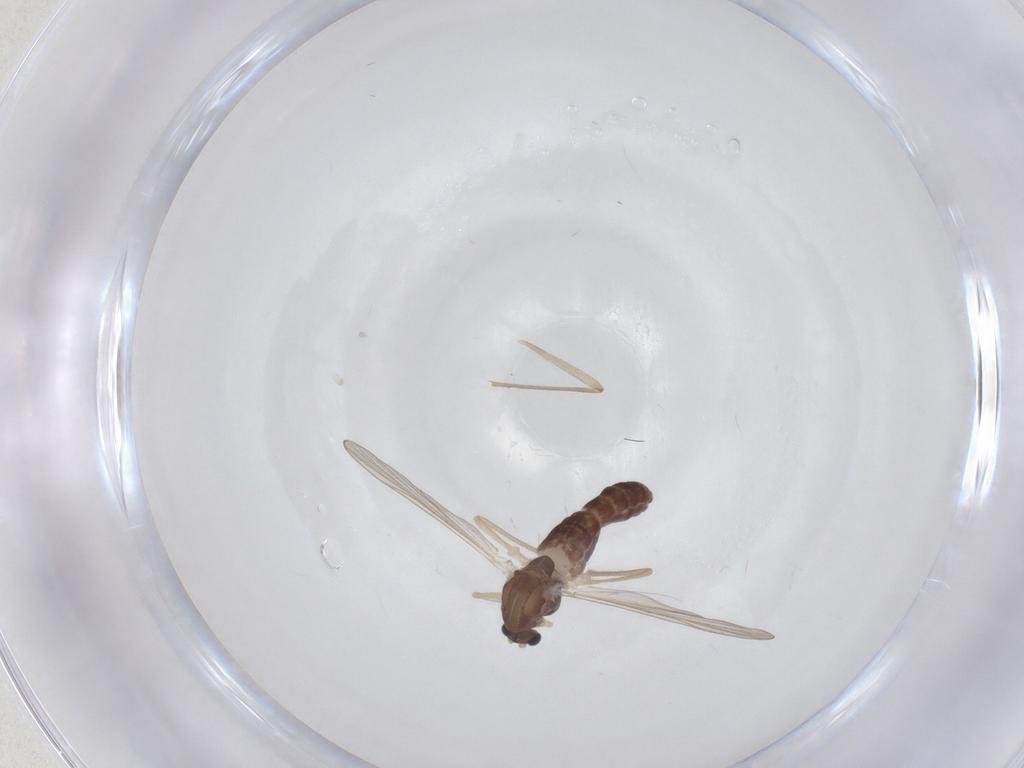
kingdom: Animalia
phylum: Arthropoda
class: Insecta
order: Diptera
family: Chironomidae
